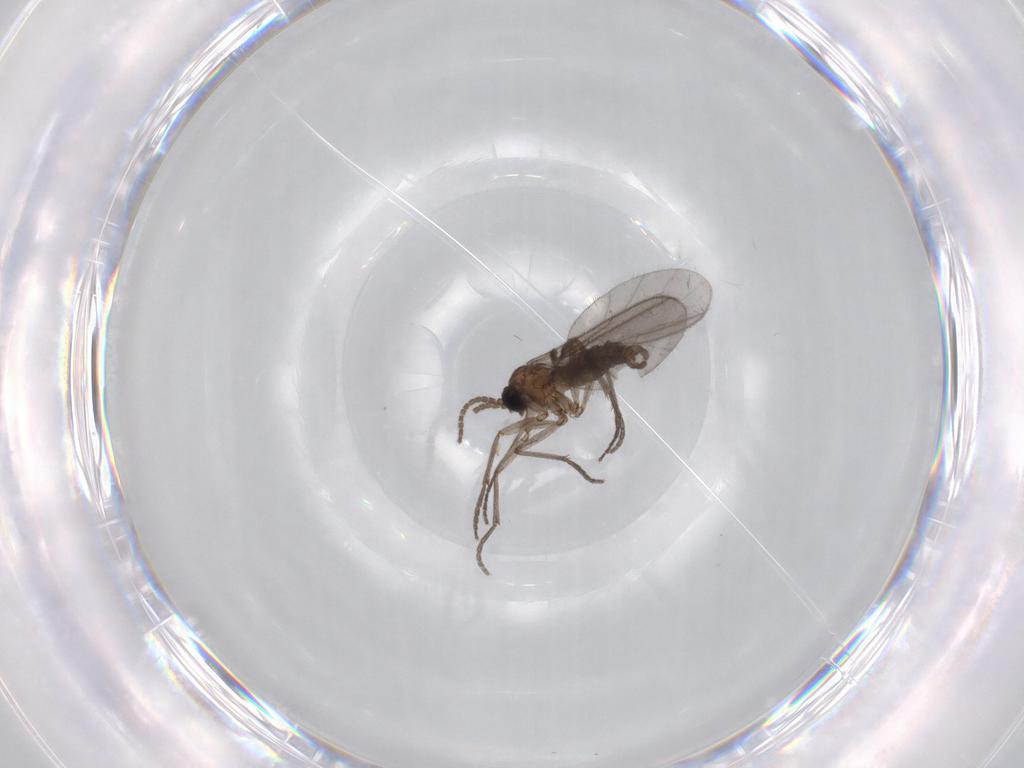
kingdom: Animalia
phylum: Arthropoda
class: Insecta
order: Diptera
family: Sciaridae
